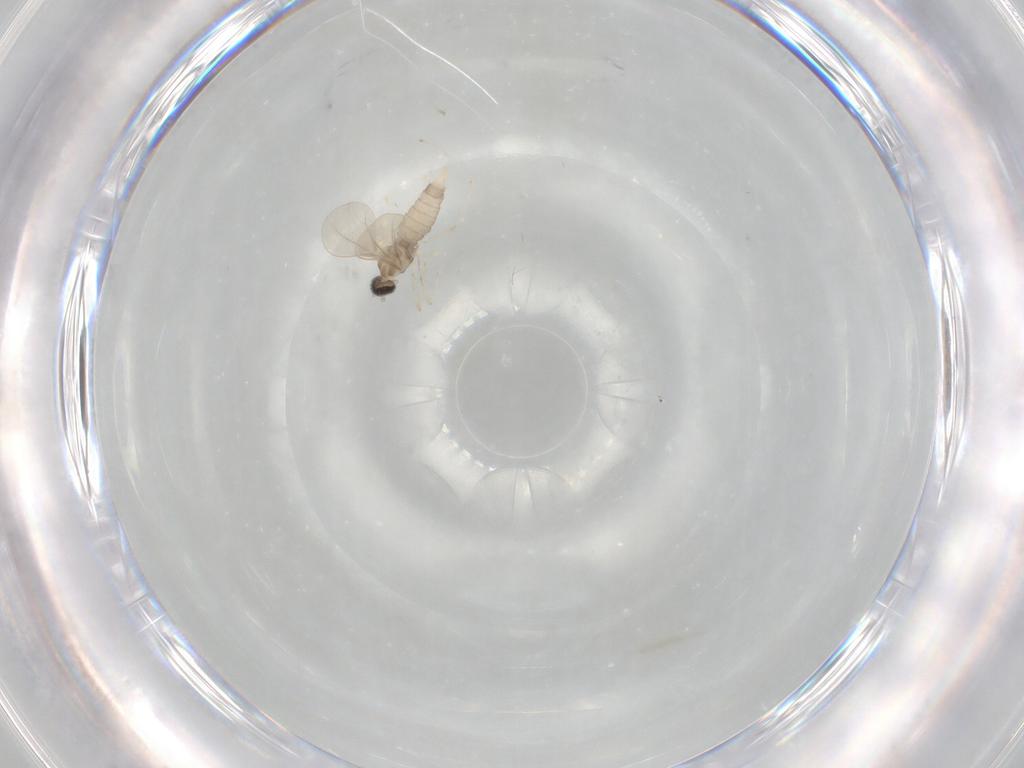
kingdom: Animalia
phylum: Arthropoda
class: Insecta
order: Diptera
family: Cecidomyiidae
